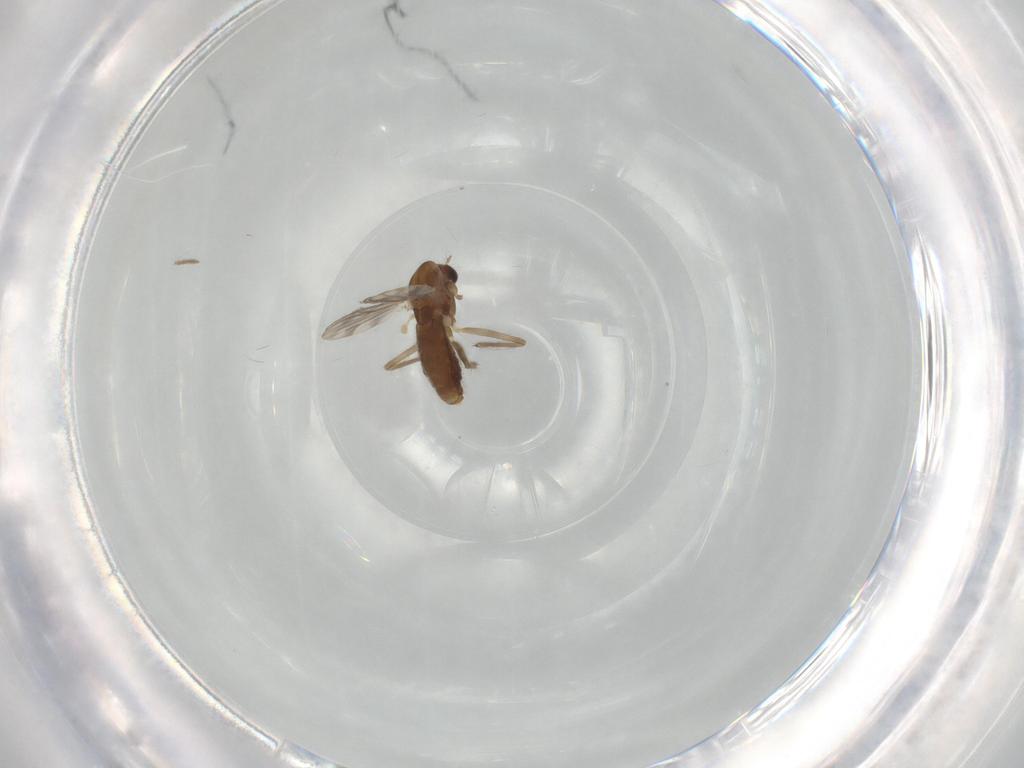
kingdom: Animalia
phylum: Arthropoda
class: Insecta
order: Diptera
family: Chironomidae
